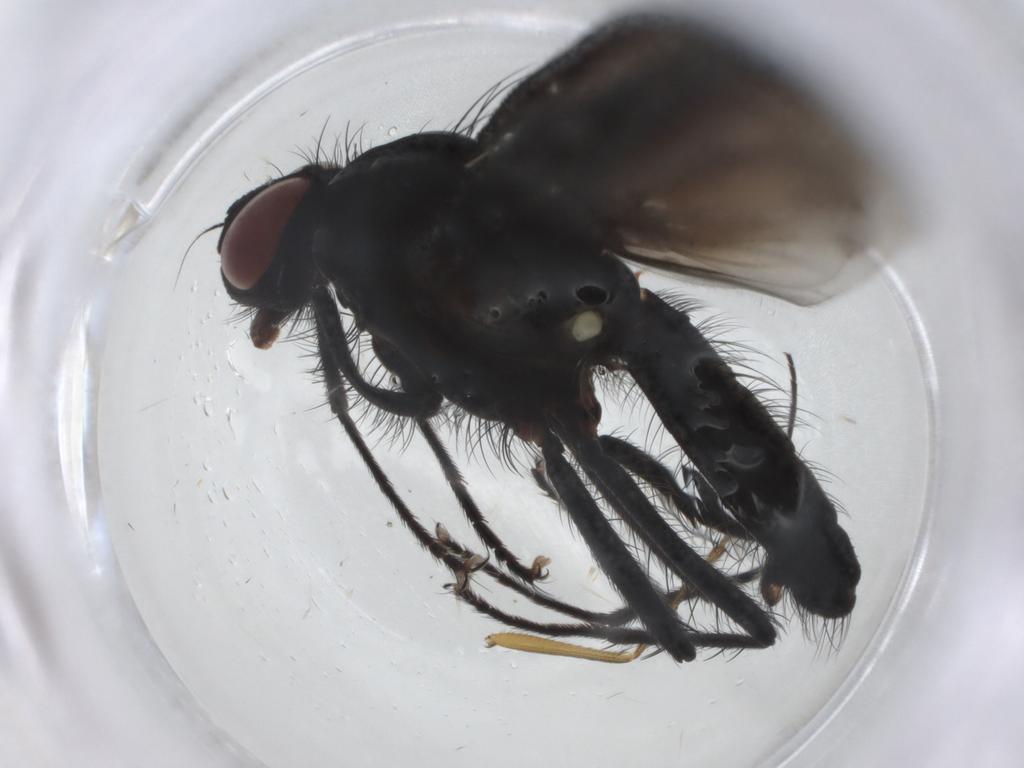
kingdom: Animalia
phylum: Arthropoda
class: Insecta
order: Diptera
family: Anthomyiidae
